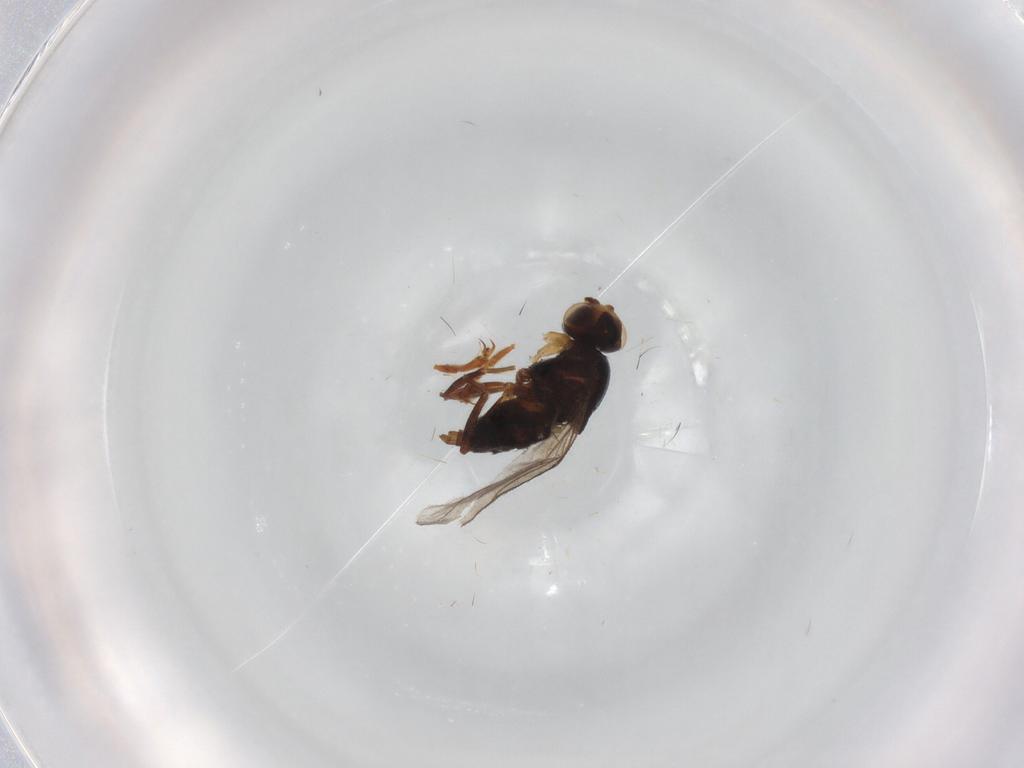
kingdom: Animalia
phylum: Arthropoda
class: Insecta
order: Diptera
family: Chloropidae
